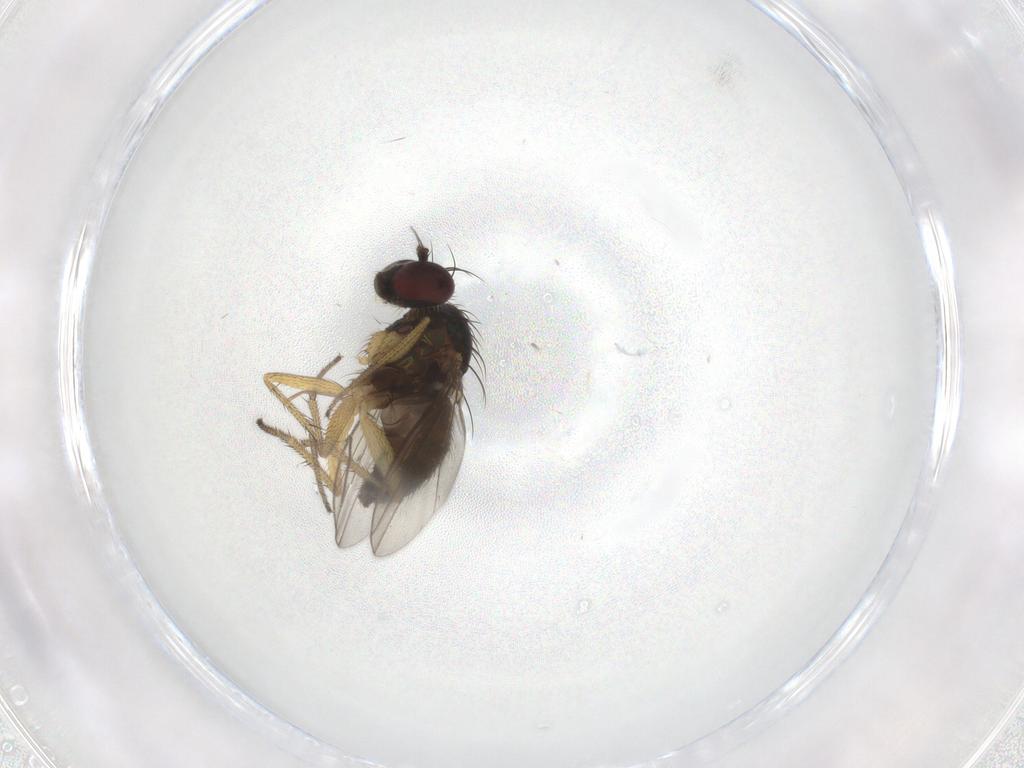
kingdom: Animalia
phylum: Arthropoda
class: Insecta
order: Diptera
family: Chironomidae
